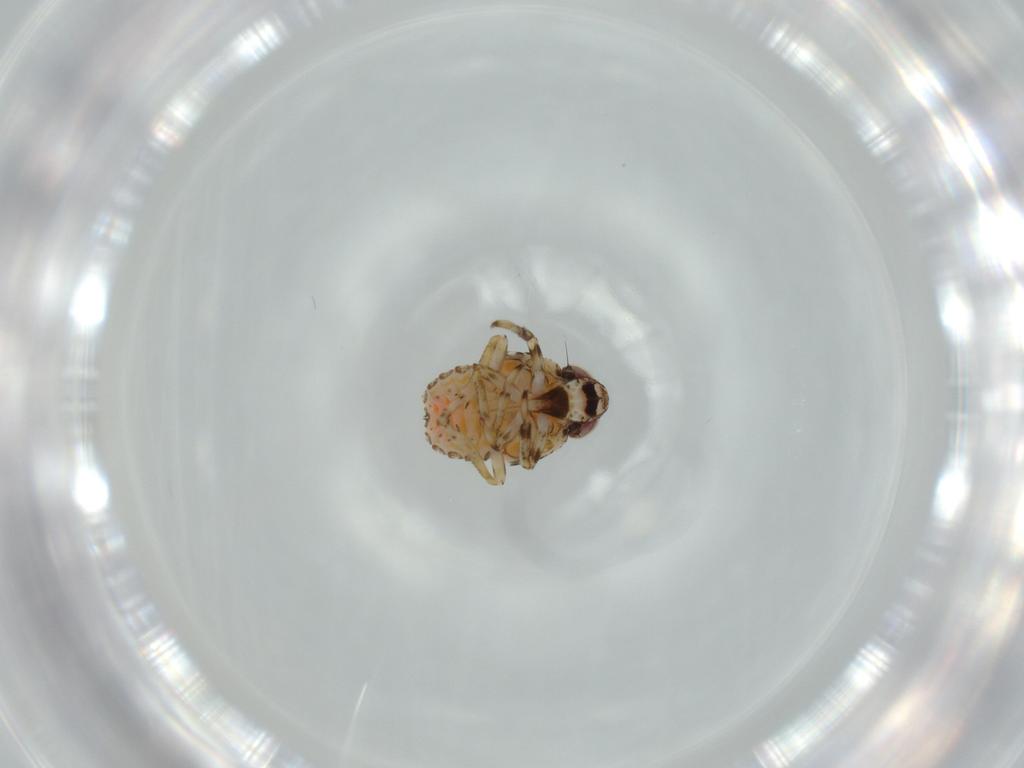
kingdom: Animalia
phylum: Arthropoda
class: Insecta
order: Hemiptera
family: Issidae
